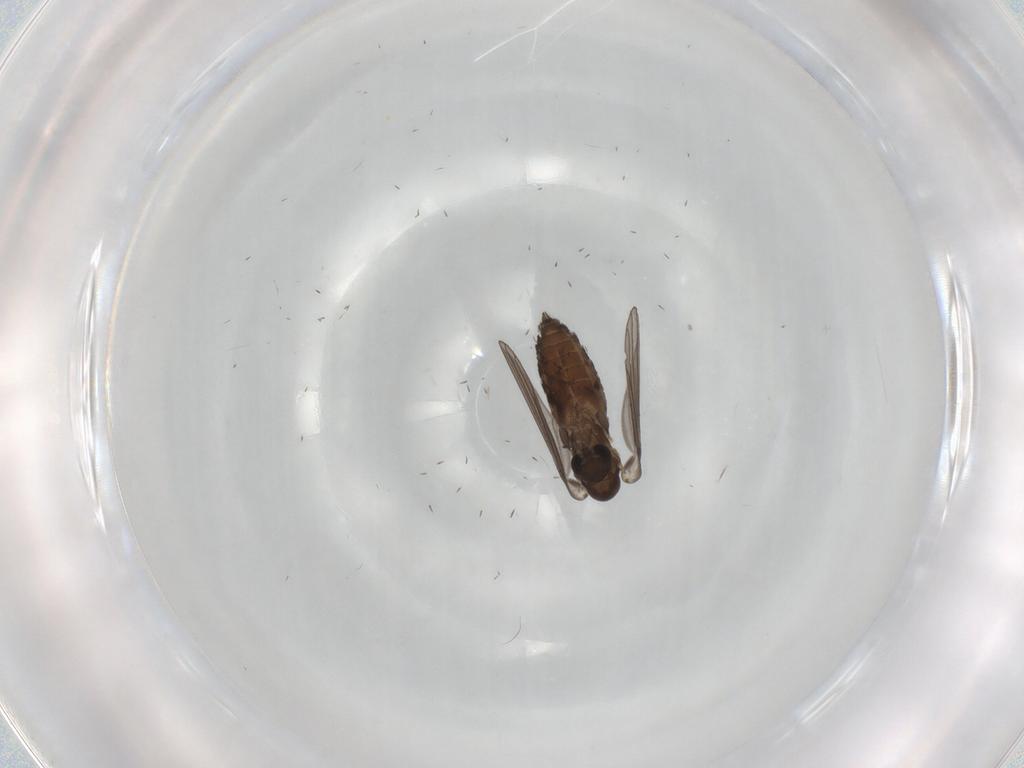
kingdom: Animalia
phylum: Arthropoda
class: Insecta
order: Diptera
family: Psychodidae
